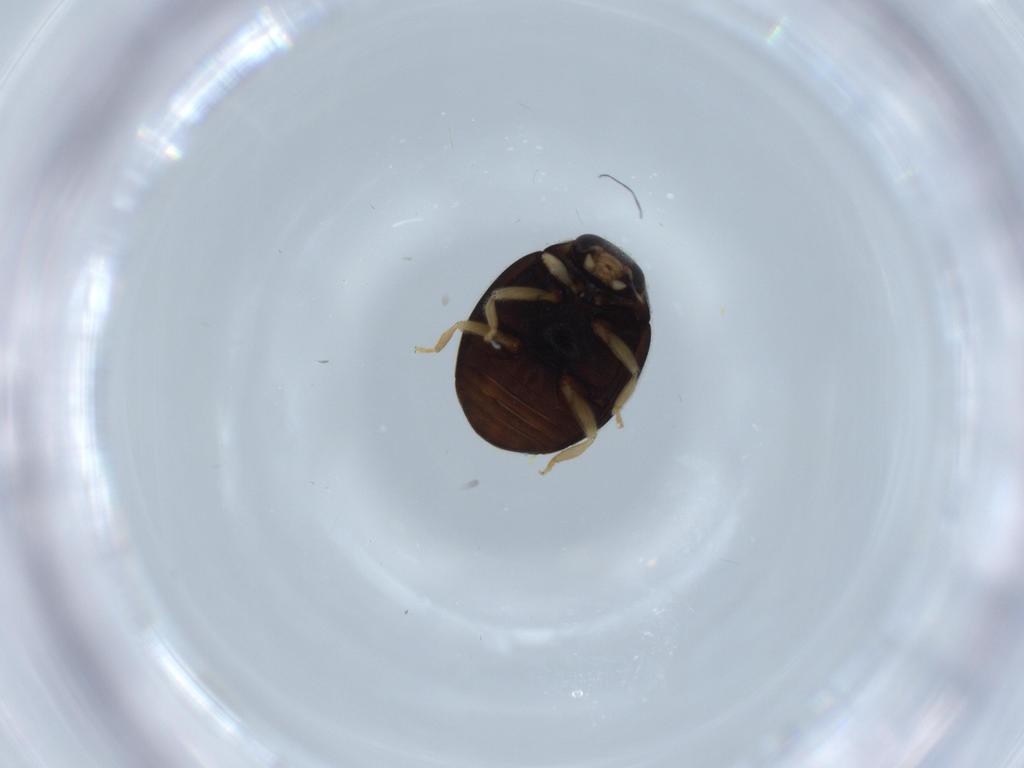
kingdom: Animalia
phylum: Arthropoda
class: Insecta
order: Coleoptera
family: Coccinellidae
